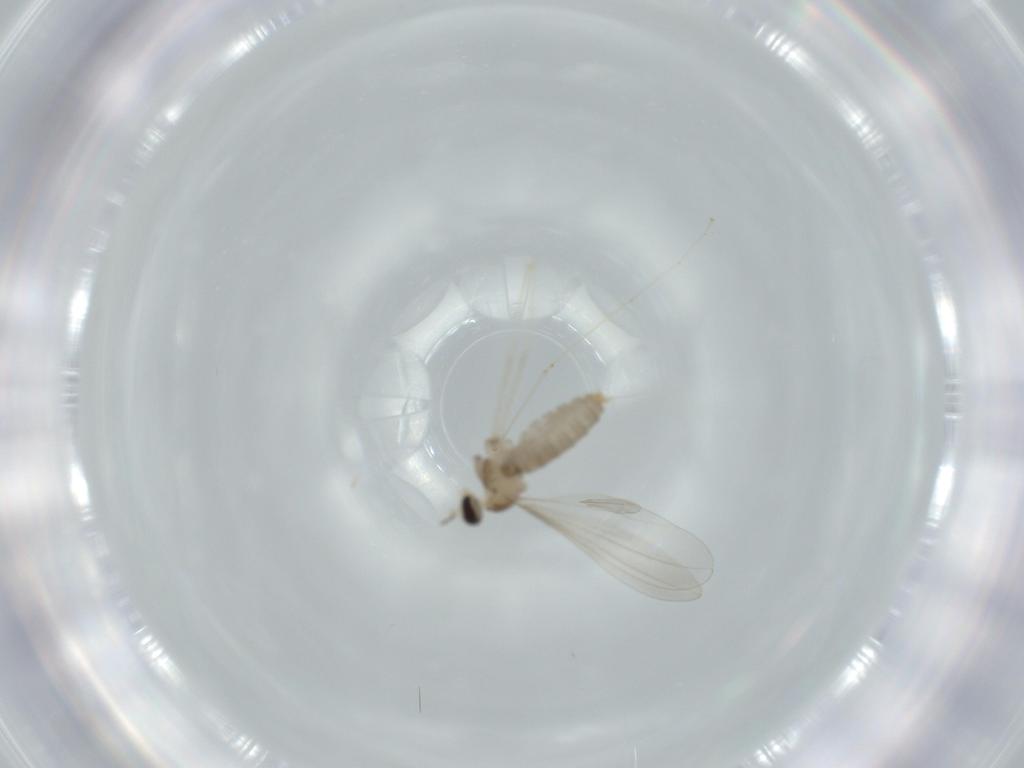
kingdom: Animalia
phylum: Arthropoda
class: Insecta
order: Diptera
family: Cecidomyiidae
